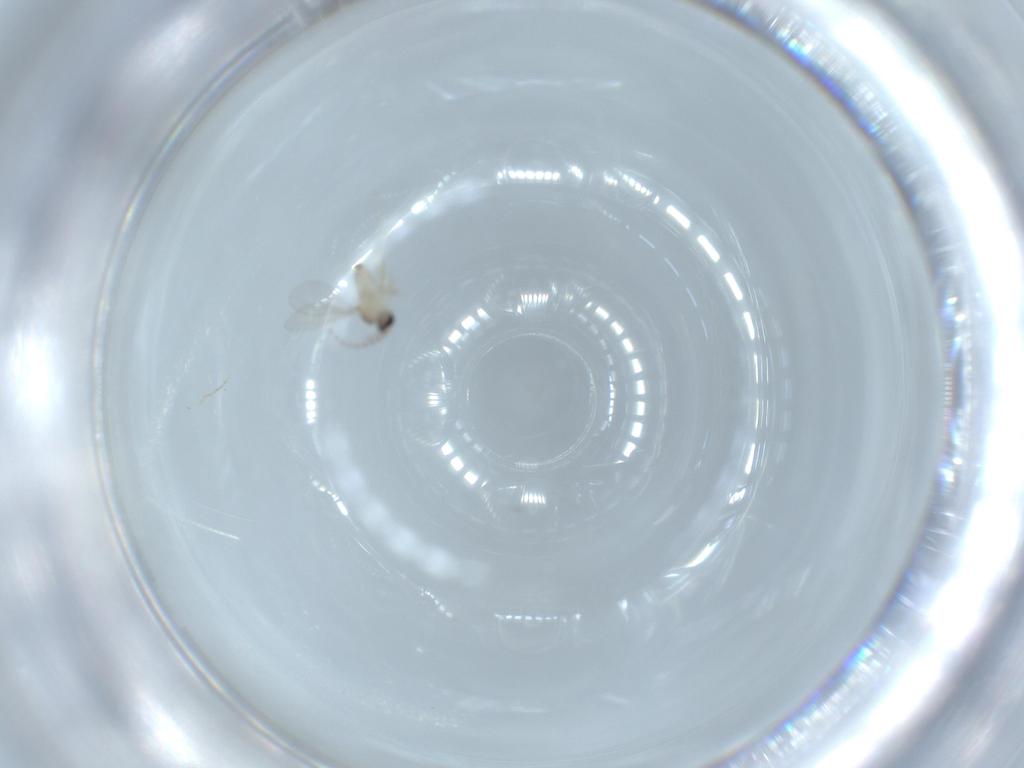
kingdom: Animalia
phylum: Arthropoda
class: Insecta
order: Diptera
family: Cecidomyiidae
